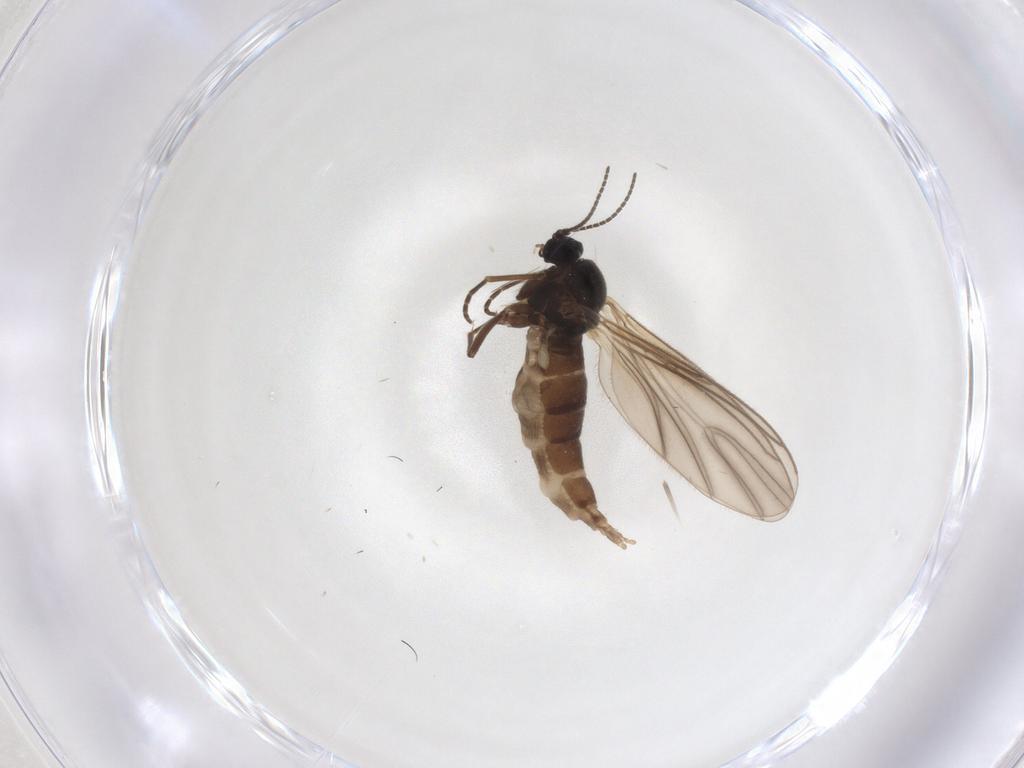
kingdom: Animalia
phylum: Arthropoda
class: Insecta
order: Diptera
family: Sciaridae
